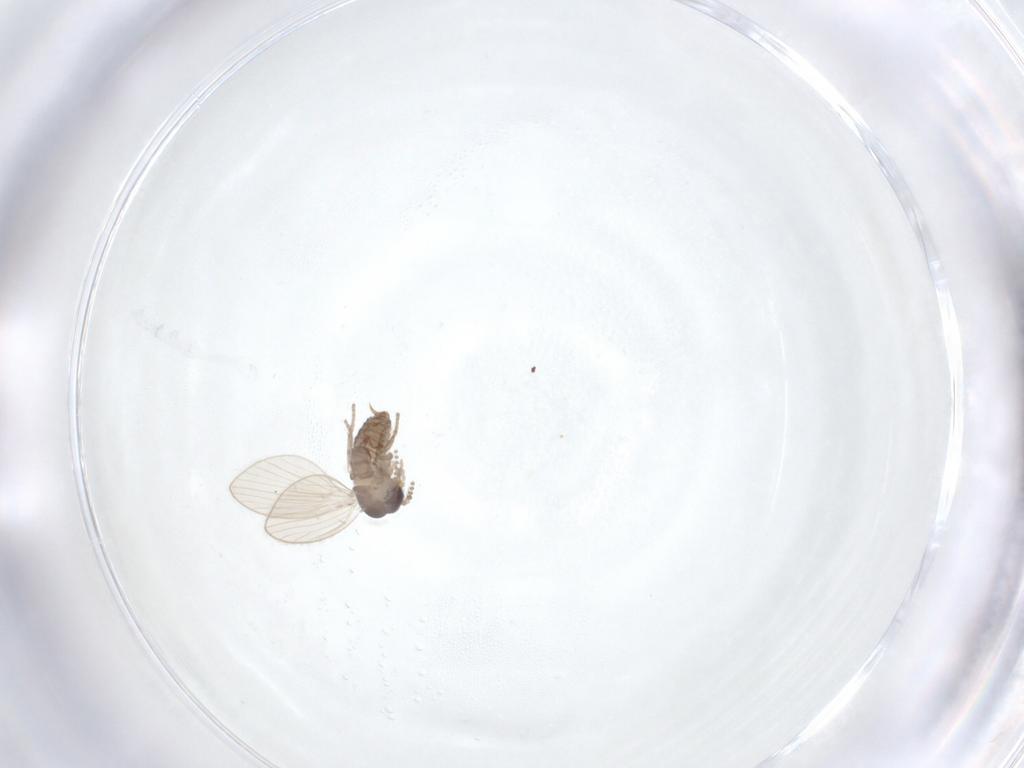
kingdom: Animalia
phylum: Arthropoda
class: Insecta
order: Diptera
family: Psychodidae
